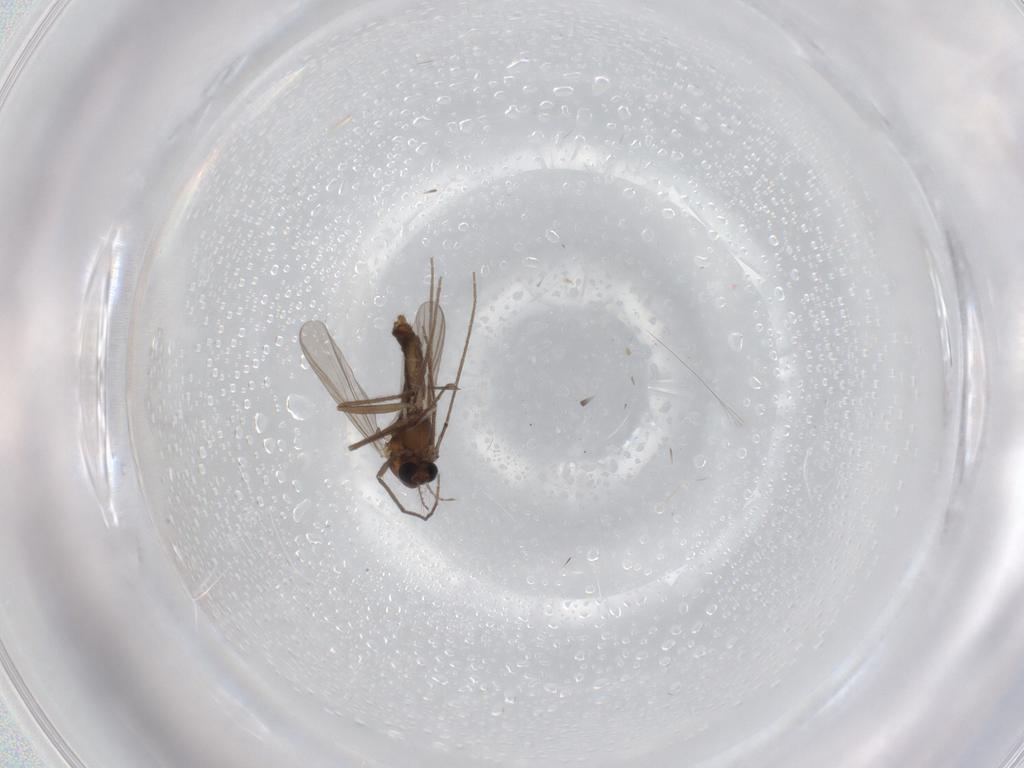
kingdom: Animalia
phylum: Arthropoda
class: Insecta
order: Diptera
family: Chironomidae
